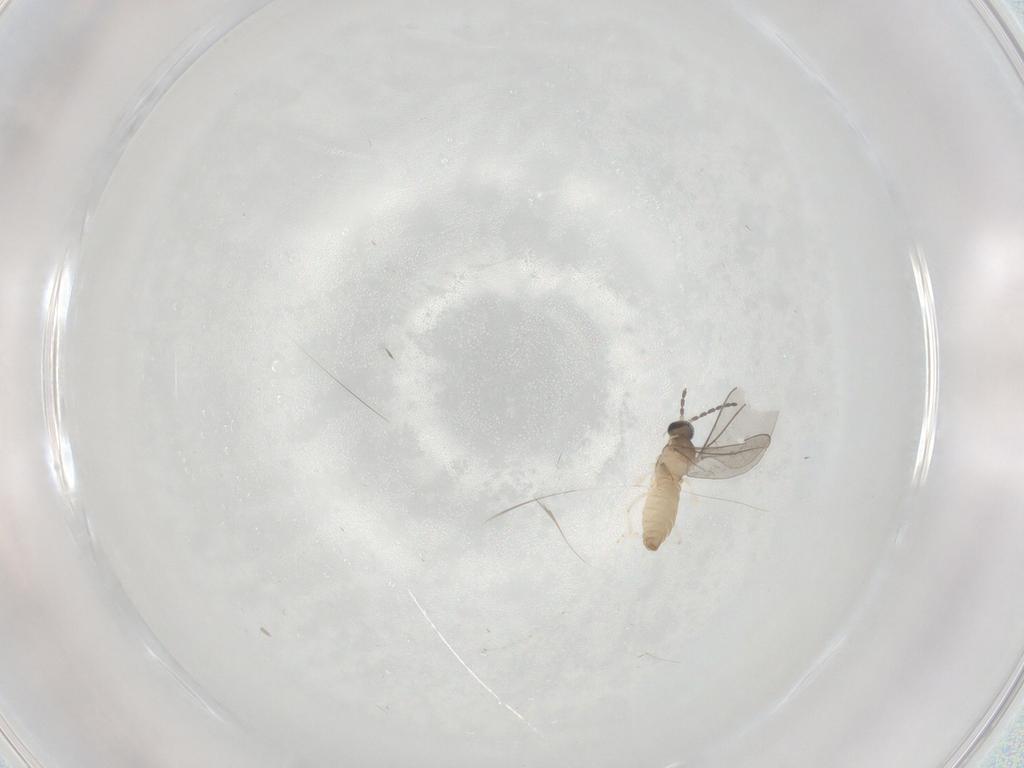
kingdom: Animalia
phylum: Arthropoda
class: Insecta
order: Diptera
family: Cecidomyiidae
